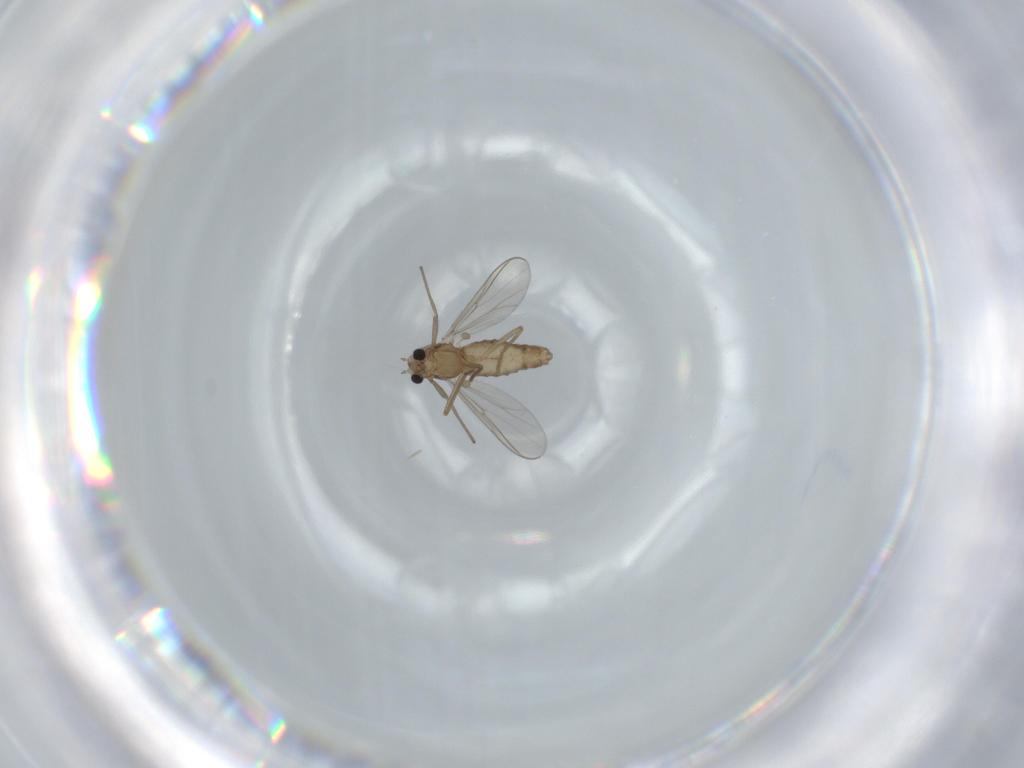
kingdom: Animalia
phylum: Arthropoda
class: Insecta
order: Diptera
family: Chironomidae
